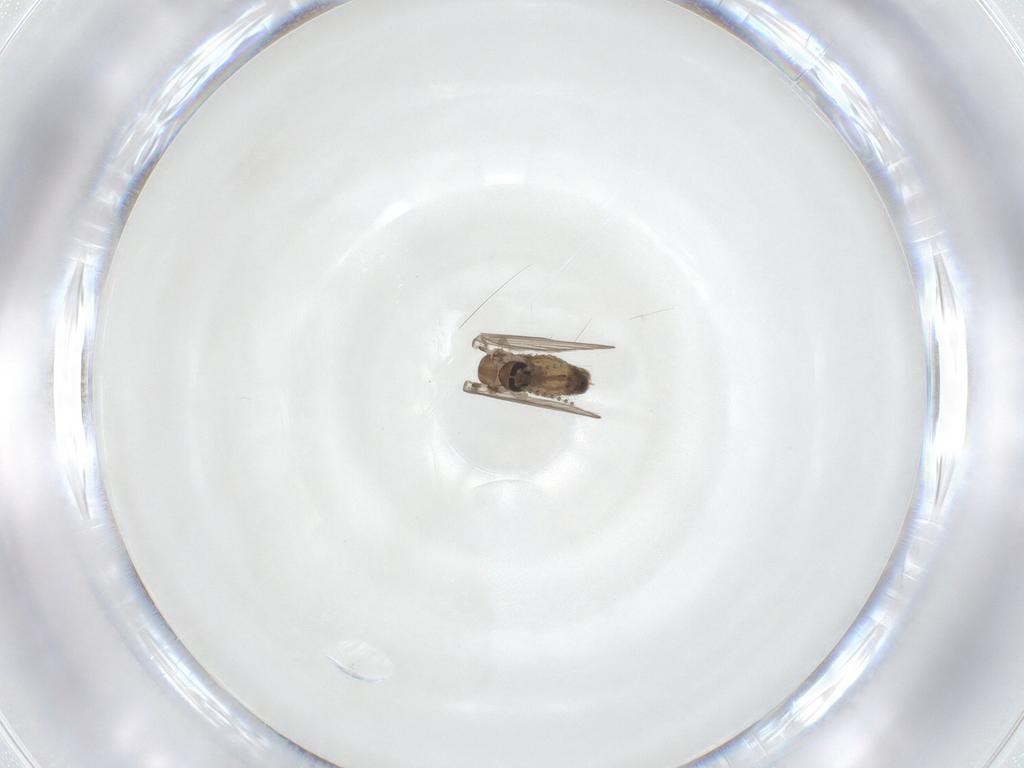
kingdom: Animalia
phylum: Arthropoda
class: Insecta
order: Diptera
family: Psychodidae
